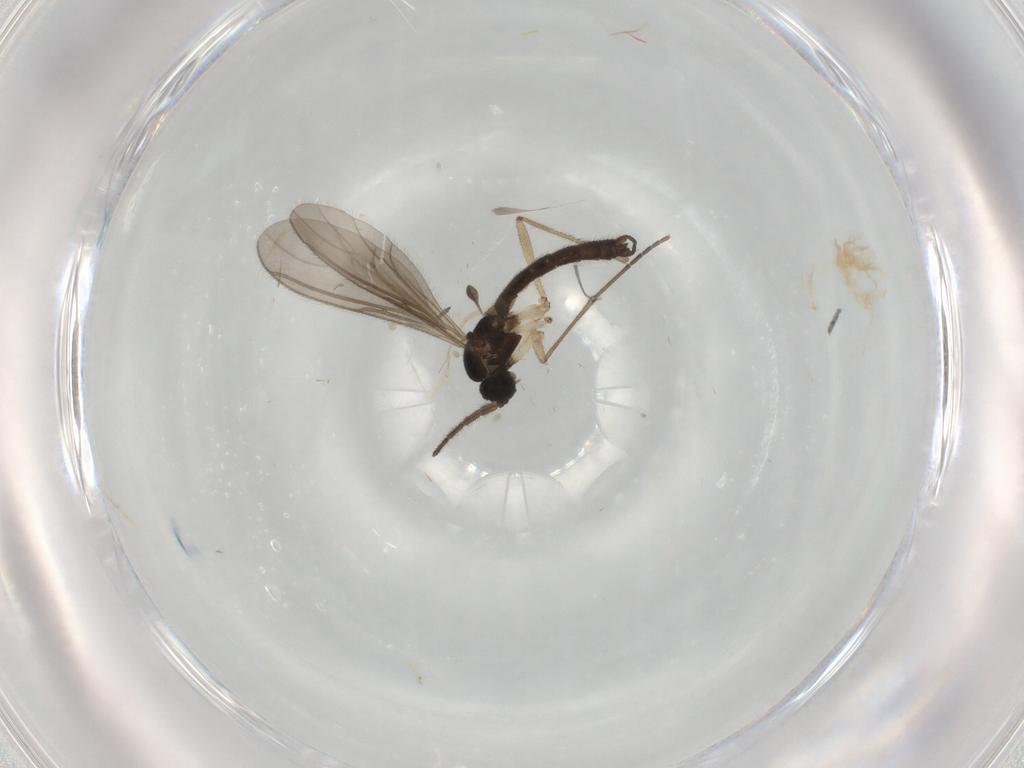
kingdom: Animalia
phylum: Arthropoda
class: Insecta
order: Diptera
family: Sciaridae
